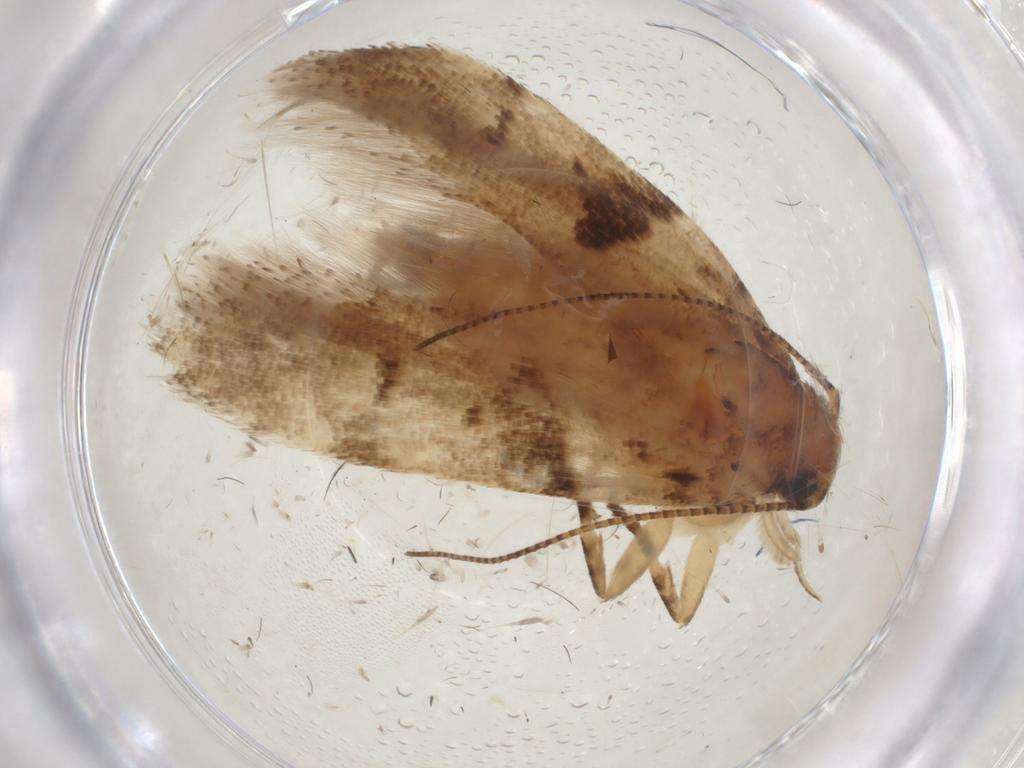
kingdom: Animalia
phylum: Arthropoda
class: Insecta
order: Lepidoptera
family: Gelechiidae
